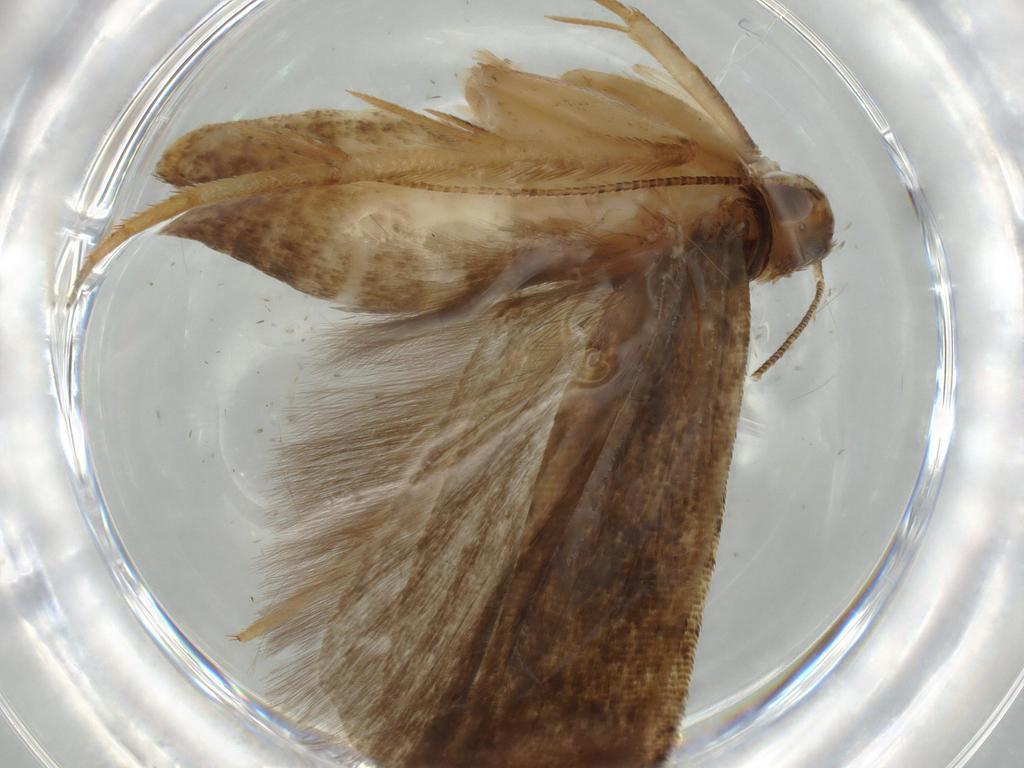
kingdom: Animalia
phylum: Arthropoda
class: Insecta
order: Lepidoptera
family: Gelechiidae
